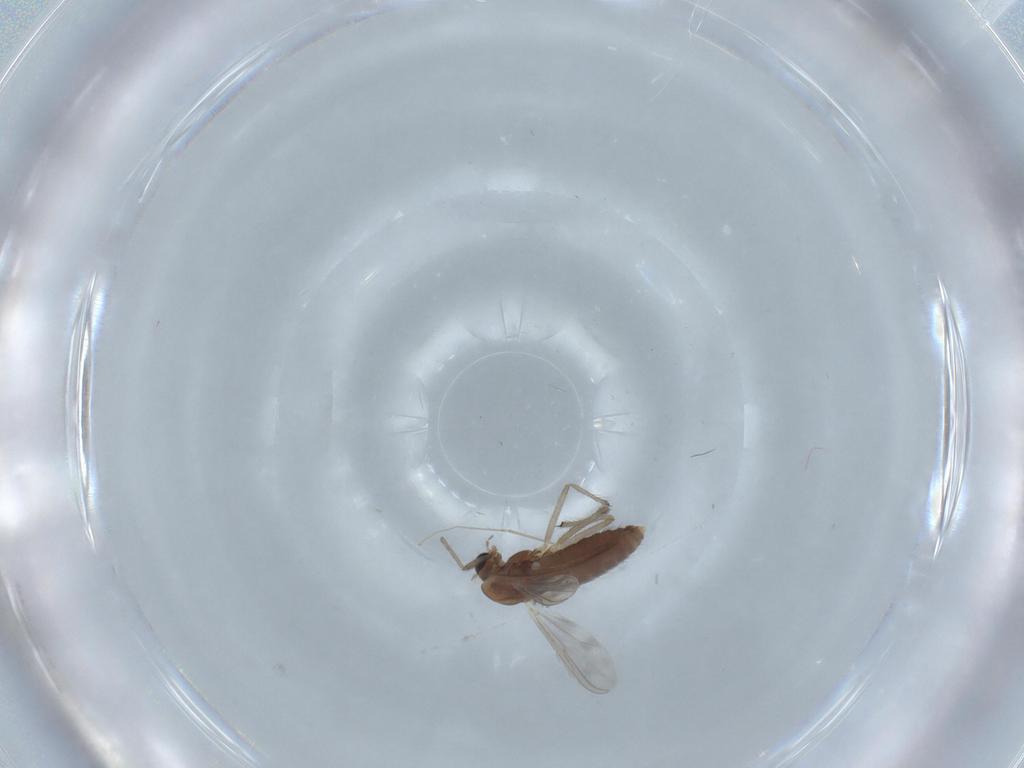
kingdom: Animalia
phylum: Arthropoda
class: Insecta
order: Diptera
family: Chironomidae
